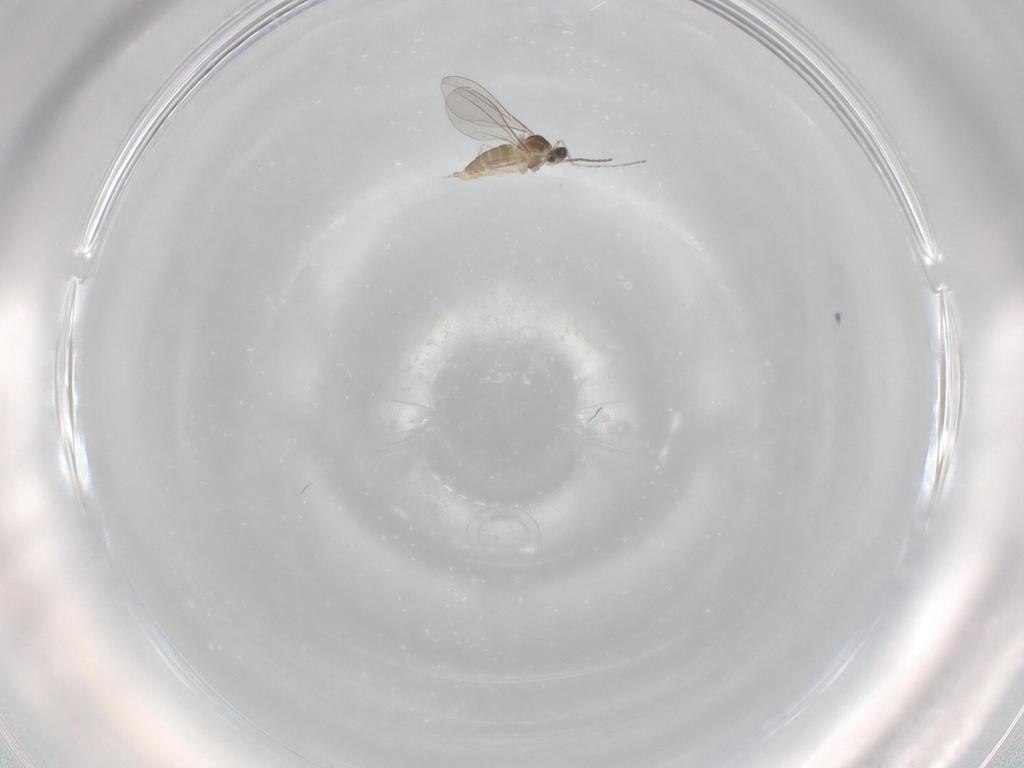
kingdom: Animalia
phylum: Arthropoda
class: Insecta
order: Diptera
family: Cecidomyiidae
